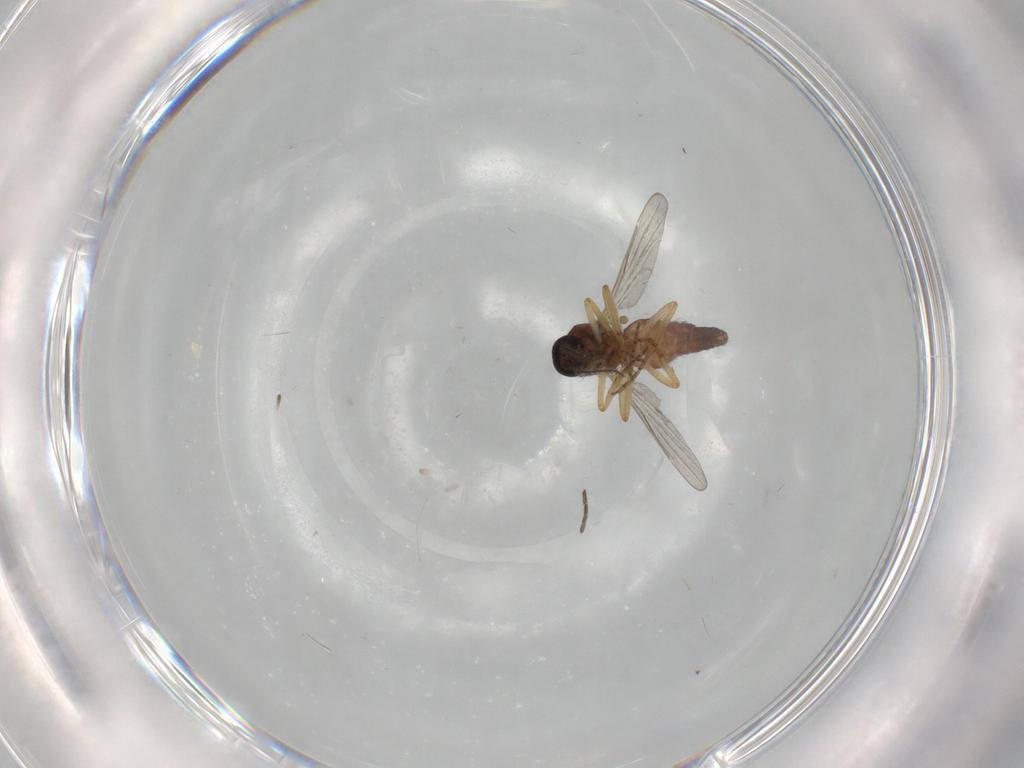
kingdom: Animalia
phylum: Arthropoda
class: Insecta
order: Diptera
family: Ceratopogonidae
